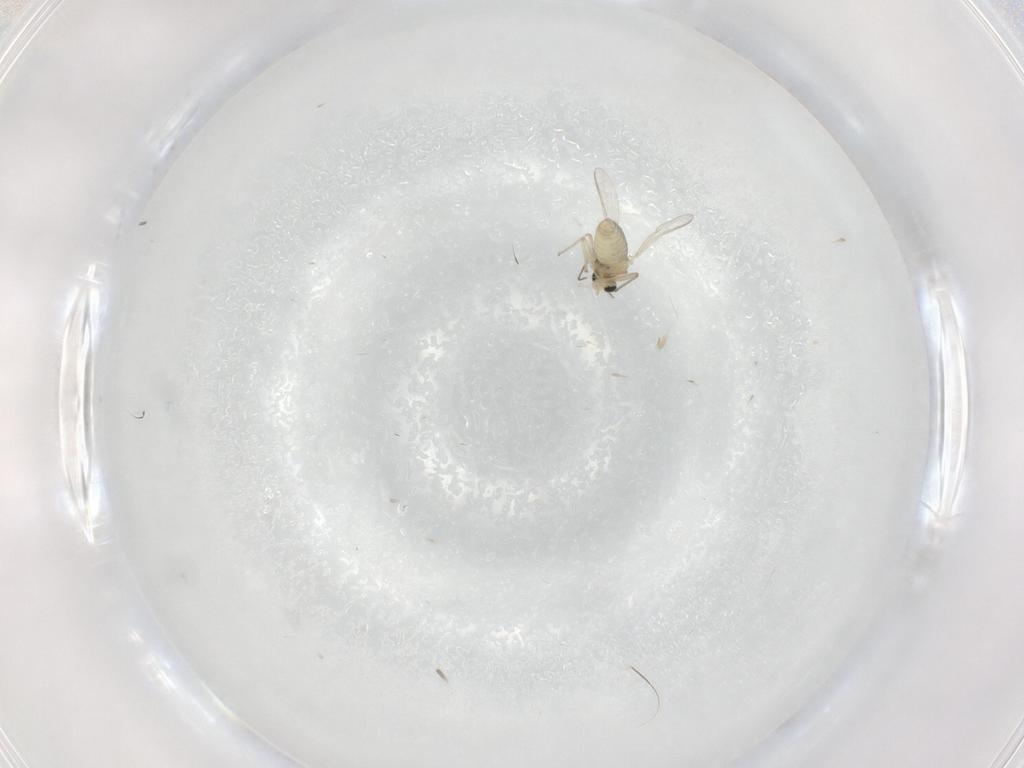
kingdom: Animalia
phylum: Arthropoda
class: Insecta
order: Diptera
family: Chironomidae
